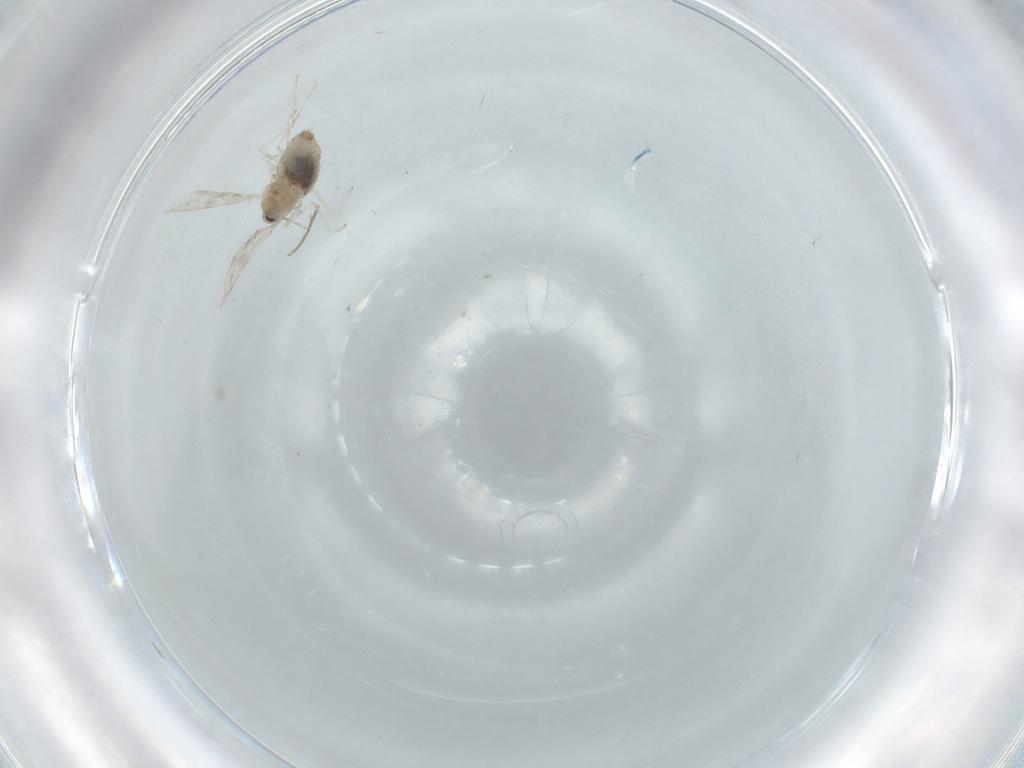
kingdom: Animalia
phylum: Arthropoda
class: Insecta
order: Diptera
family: Cecidomyiidae
